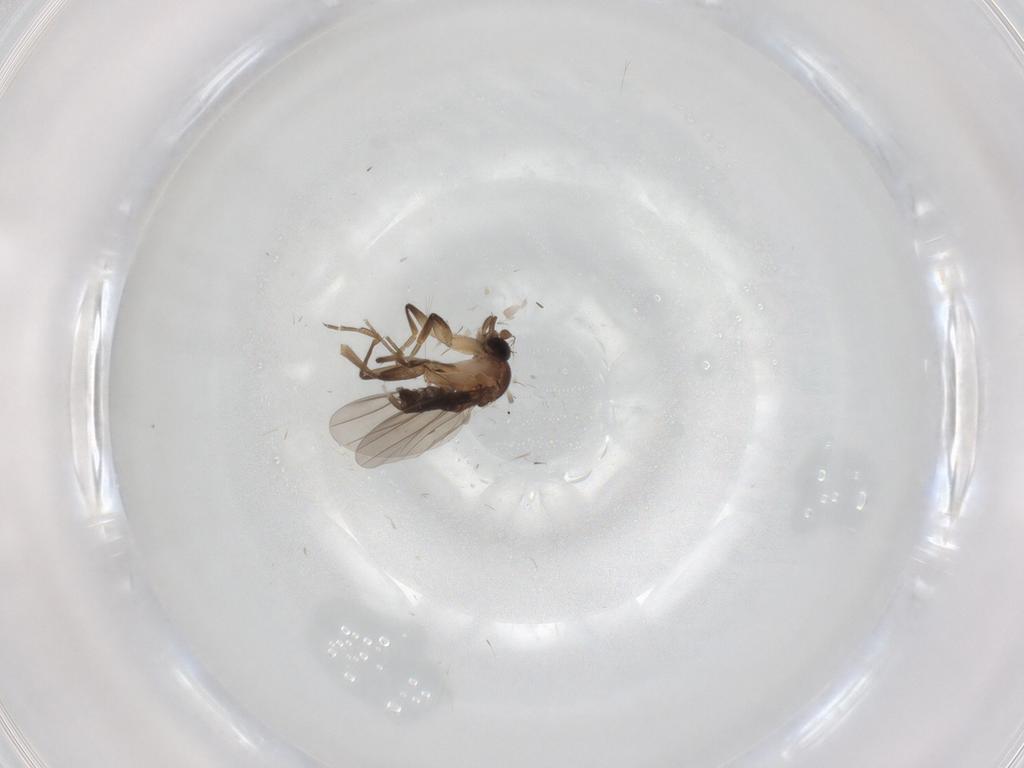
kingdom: Animalia
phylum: Arthropoda
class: Insecta
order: Diptera
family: Phoridae
